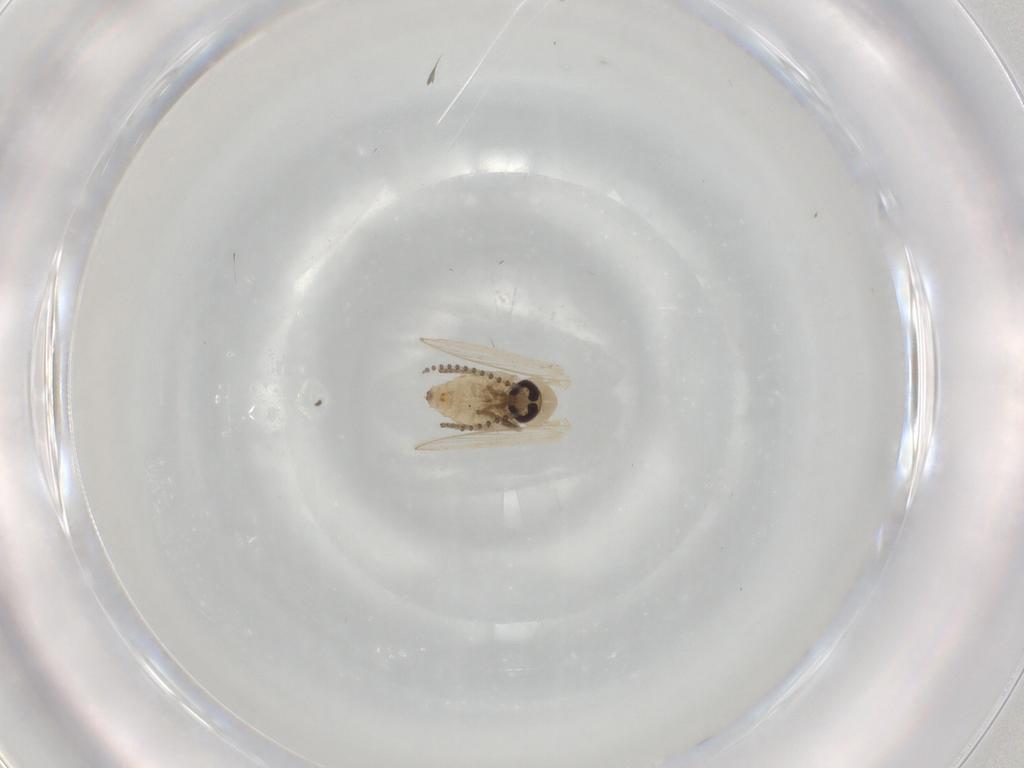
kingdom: Animalia
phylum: Arthropoda
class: Insecta
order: Diptera
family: Psychodidae
